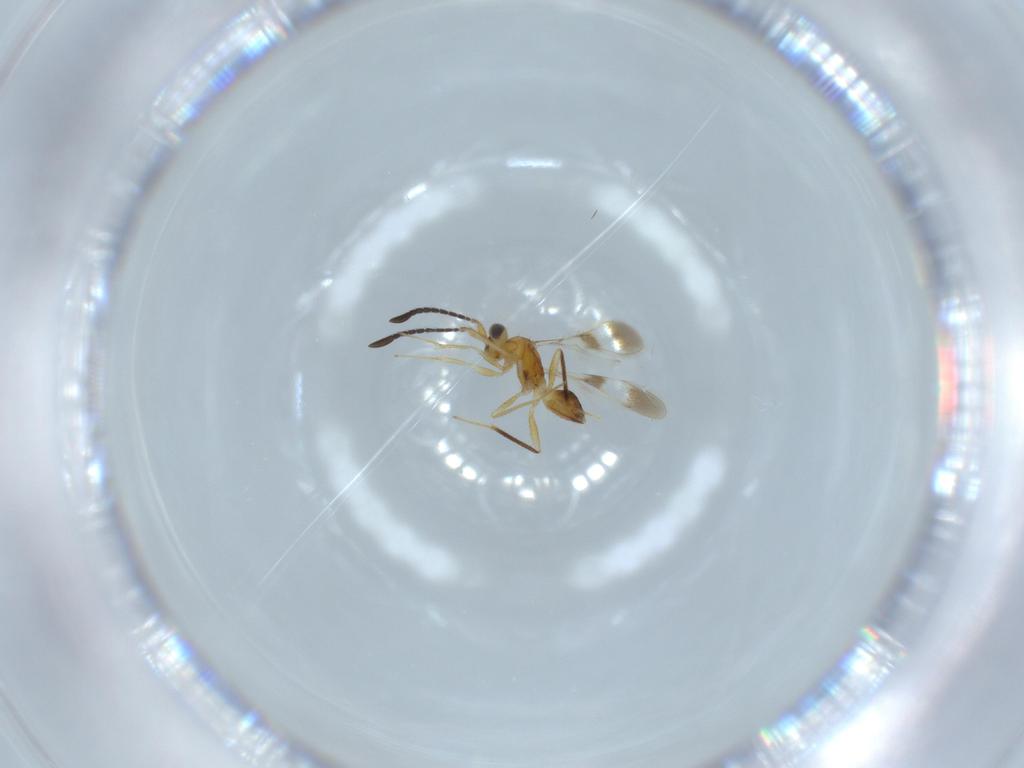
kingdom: Animalia
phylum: Arthropoda
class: Insecta
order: Hymenoptera
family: Mymaridae
